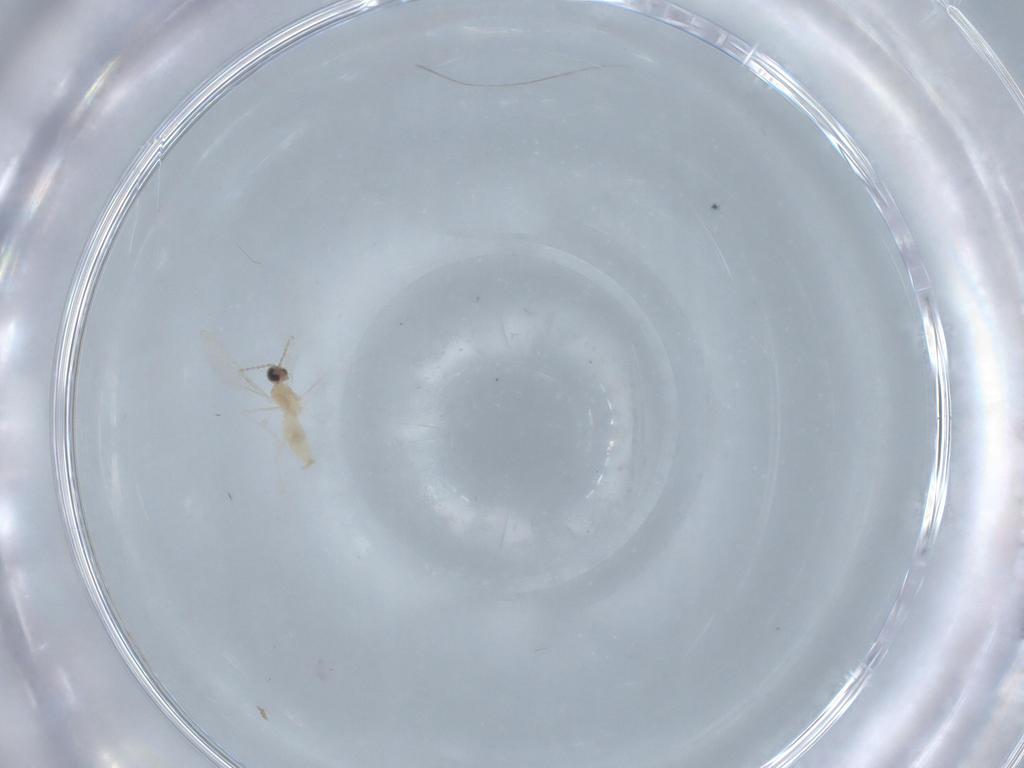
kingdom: Animalia
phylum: Arthropoda
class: Insecta
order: Diptera
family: Cecidomyiidae
